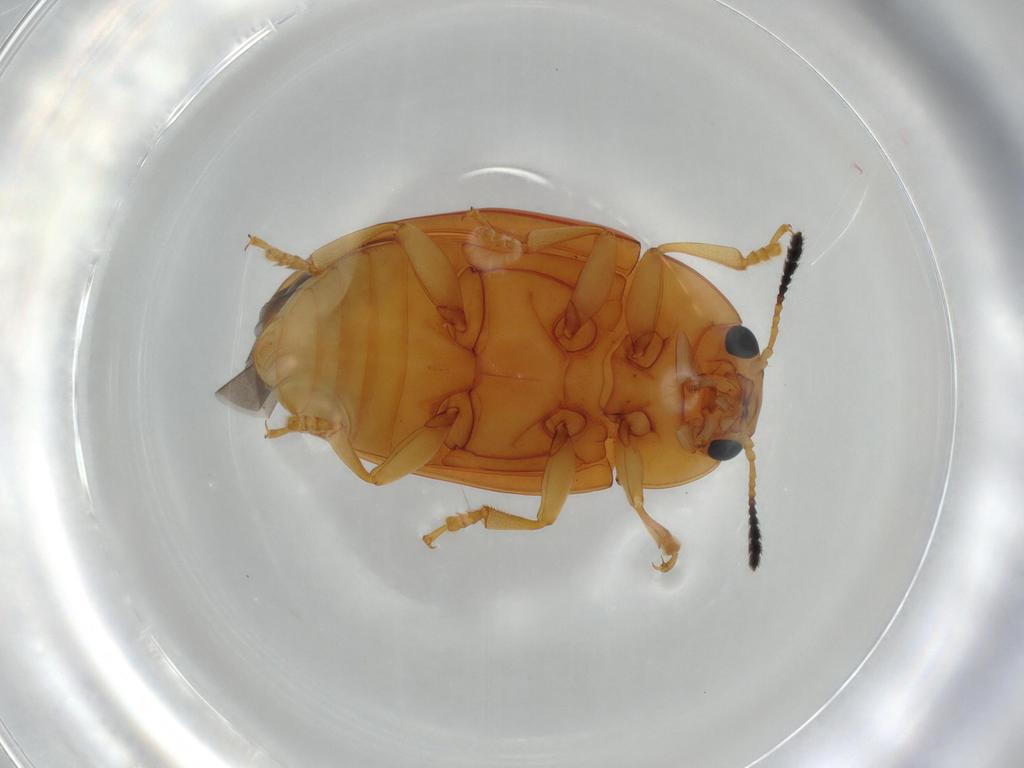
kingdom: Animalia
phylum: Arthropoda
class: Insecta
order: Coleoptera
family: Erotylidae
